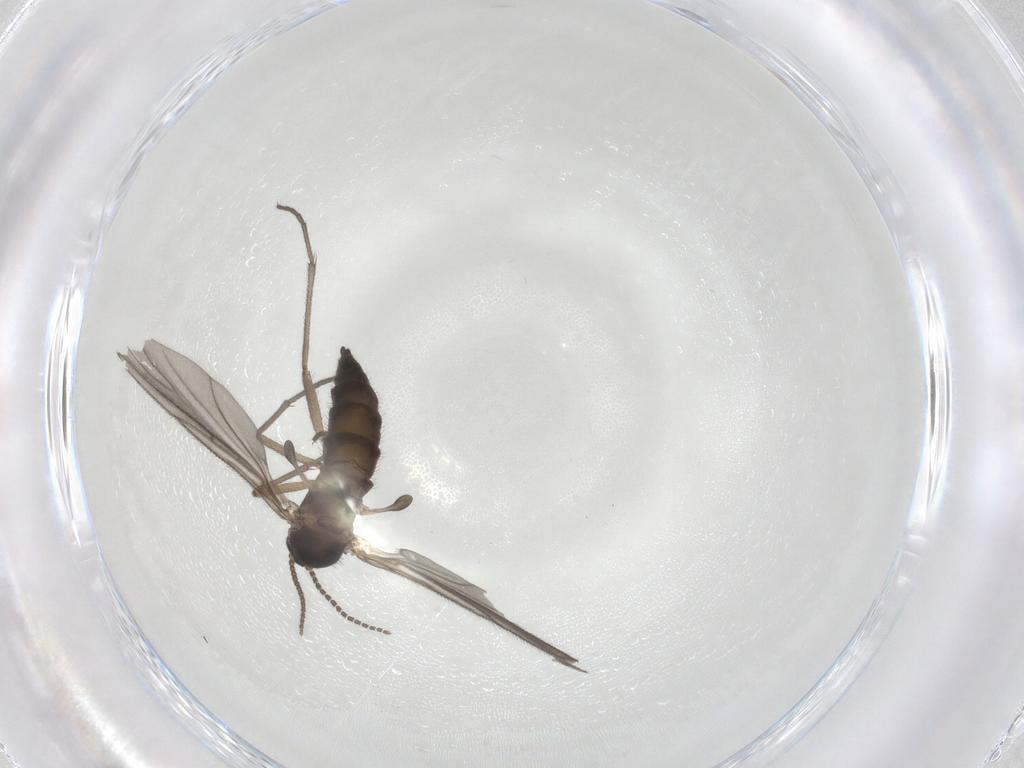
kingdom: Animalia
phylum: Arthropoda
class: Insecta
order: Diptera
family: Sciaridae
